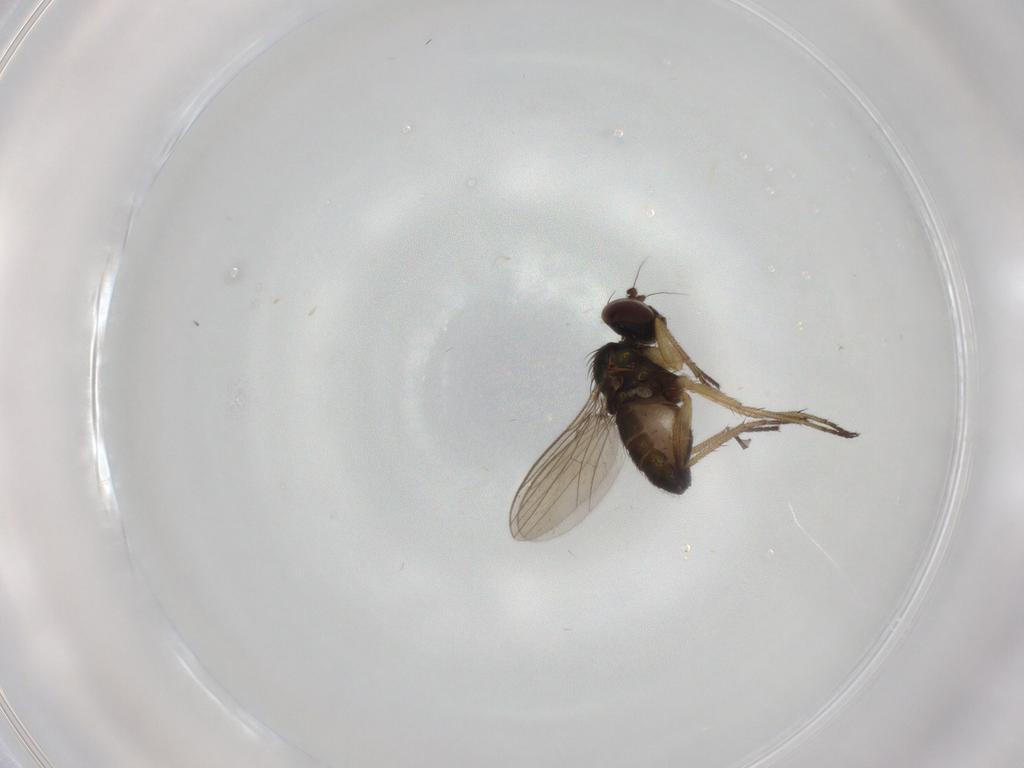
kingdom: Animalia
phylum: Arthropoda
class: Insecta
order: Diptera
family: Dolichopodidae
